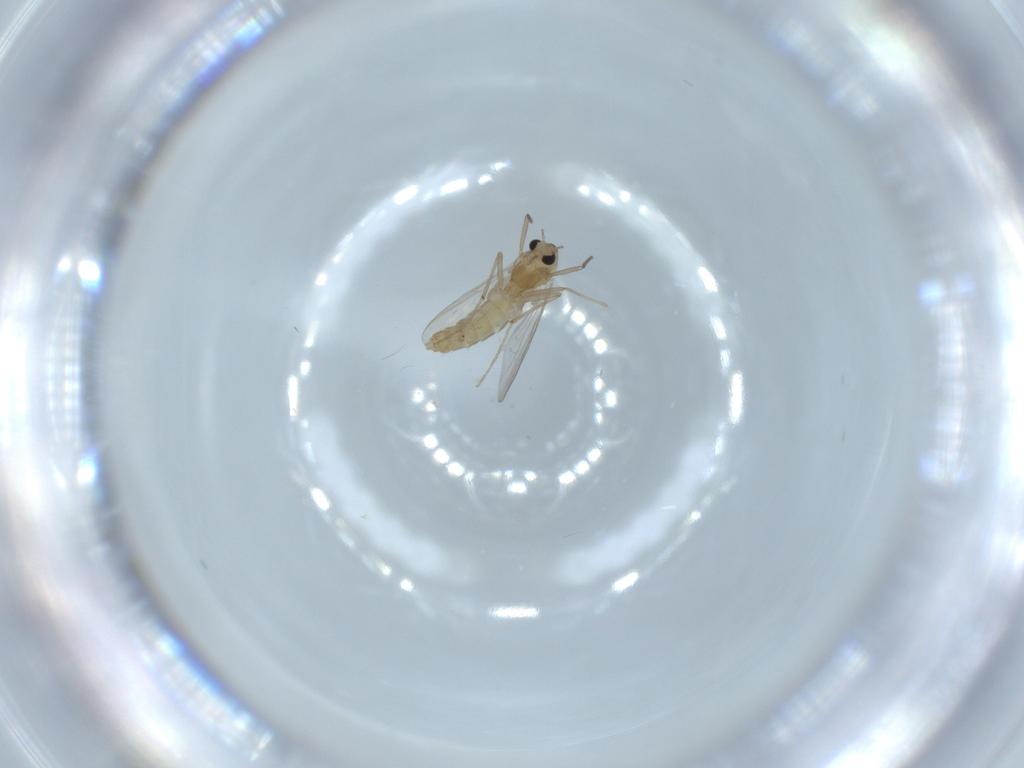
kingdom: Animalia
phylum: Arthropoda
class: Insecta
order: Diptera
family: Chironomidae
